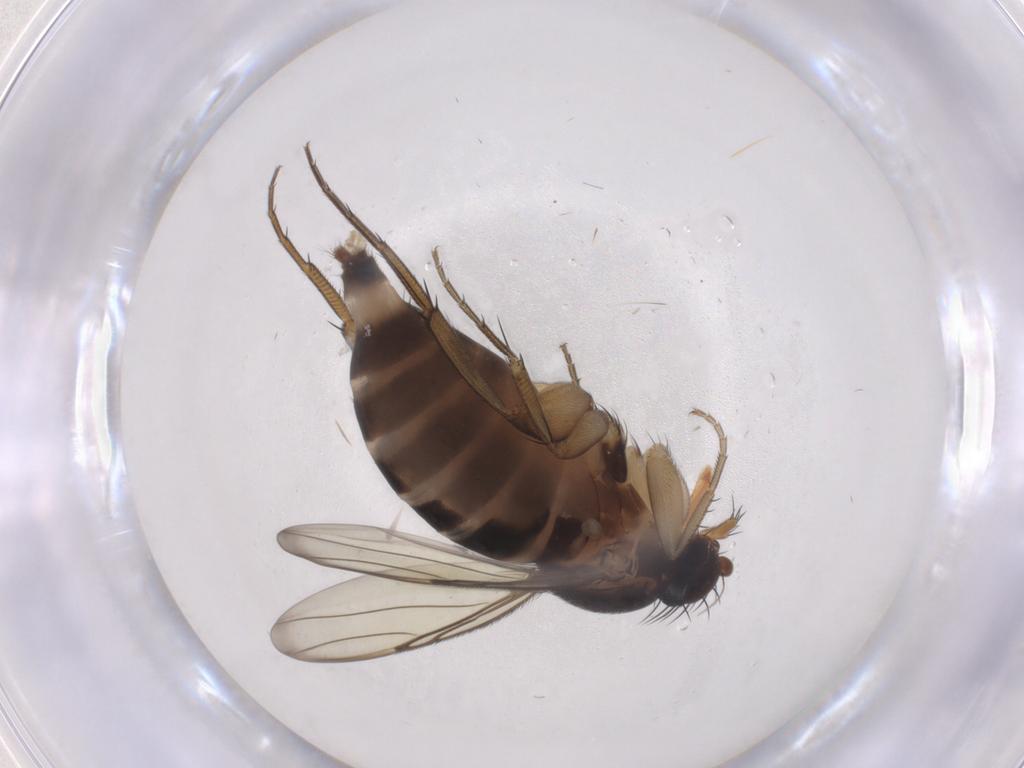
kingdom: Animalia
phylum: Arthropoda
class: Insecta
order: Diptera
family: Phoridae
